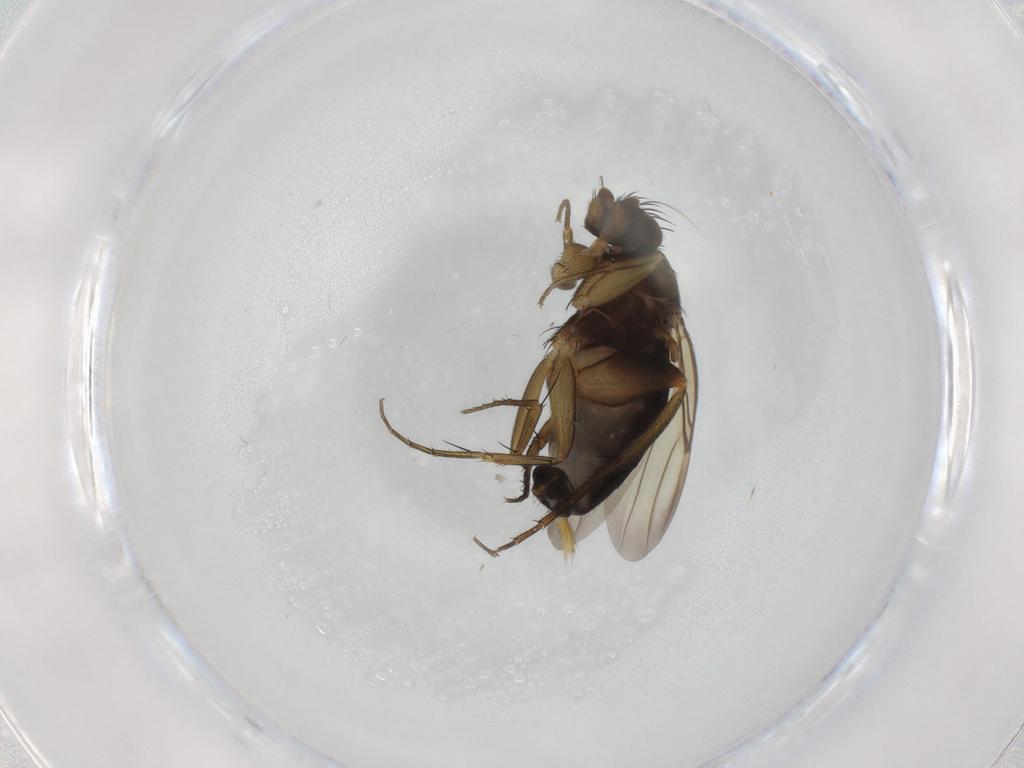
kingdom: Animalia
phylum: Arthropoda
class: Insecta
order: Diptera
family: Phoridae
